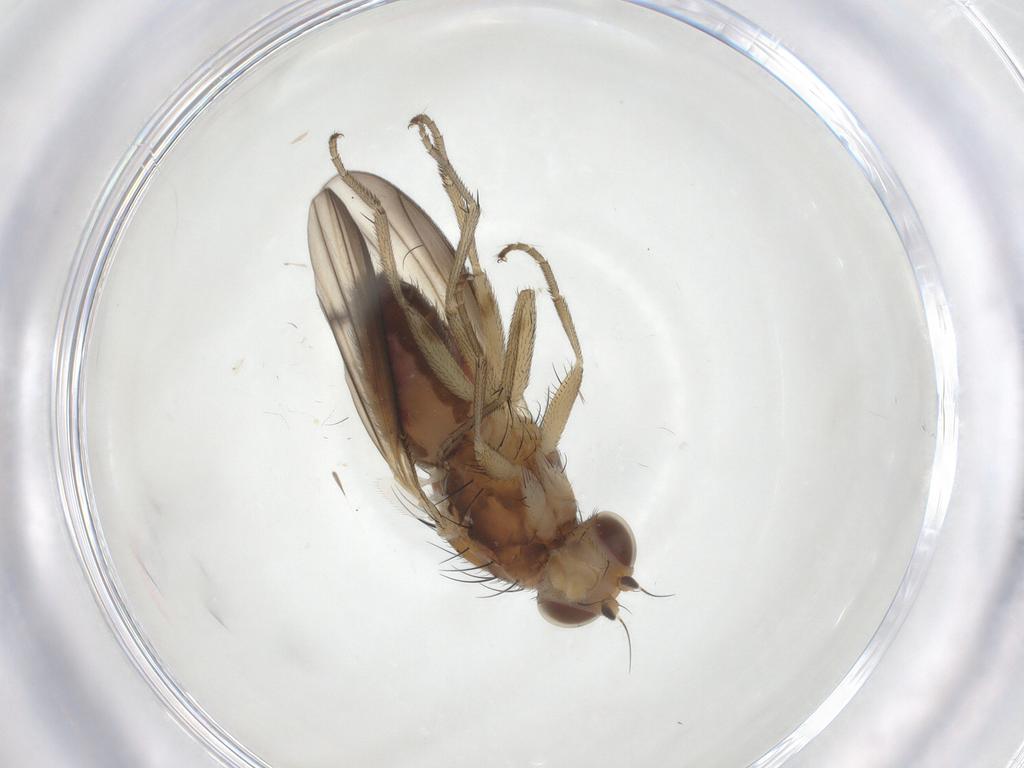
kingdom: Animalia
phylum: Arthropoda
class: Insecta
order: Diptera
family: Heleomyzidae
